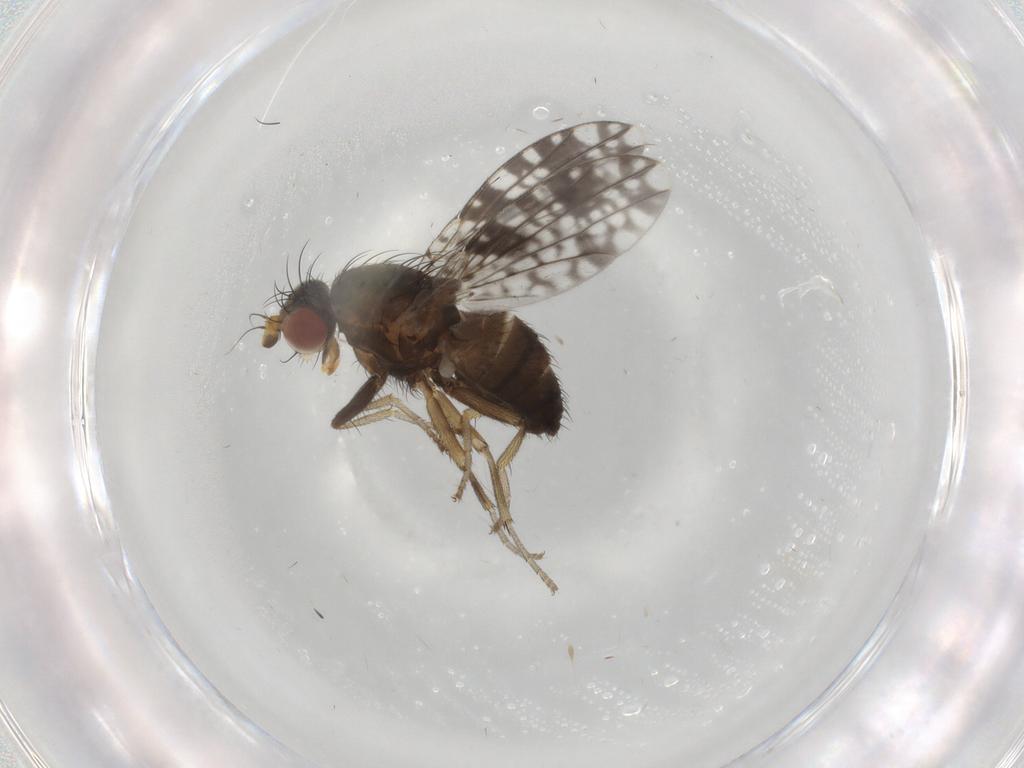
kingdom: Animalia
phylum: Arthropoda
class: Insecta
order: Diptera
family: Tephritidae
